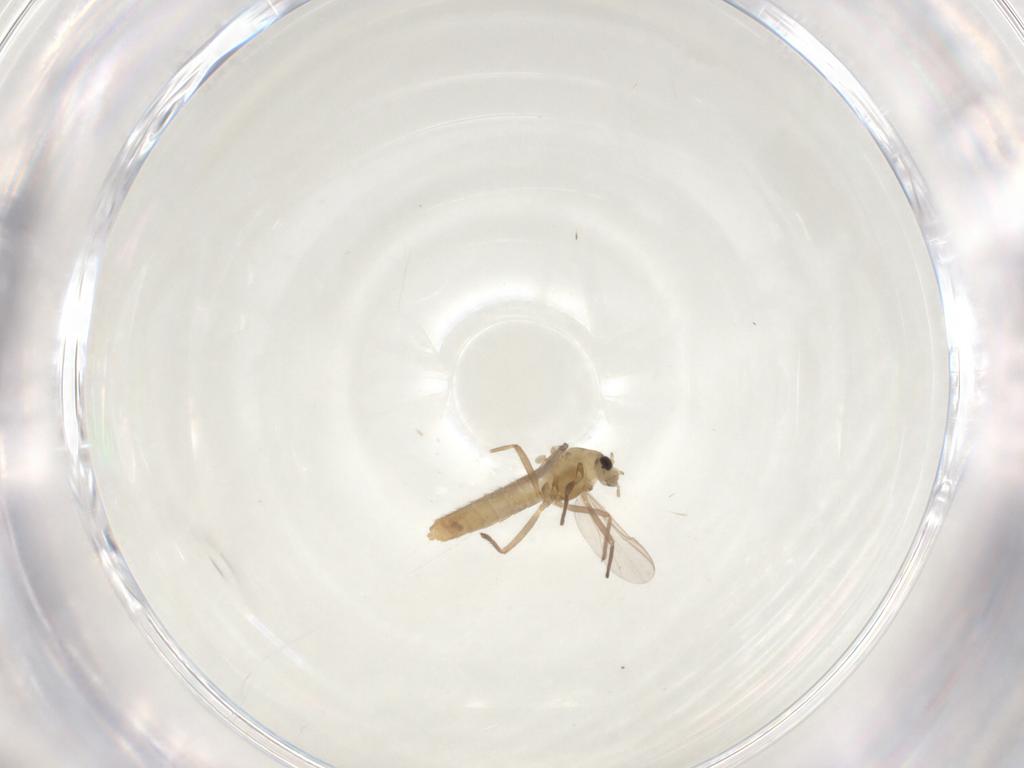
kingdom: Animalia
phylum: Arthropoda
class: Insecta
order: Diptera
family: Chironomidae
